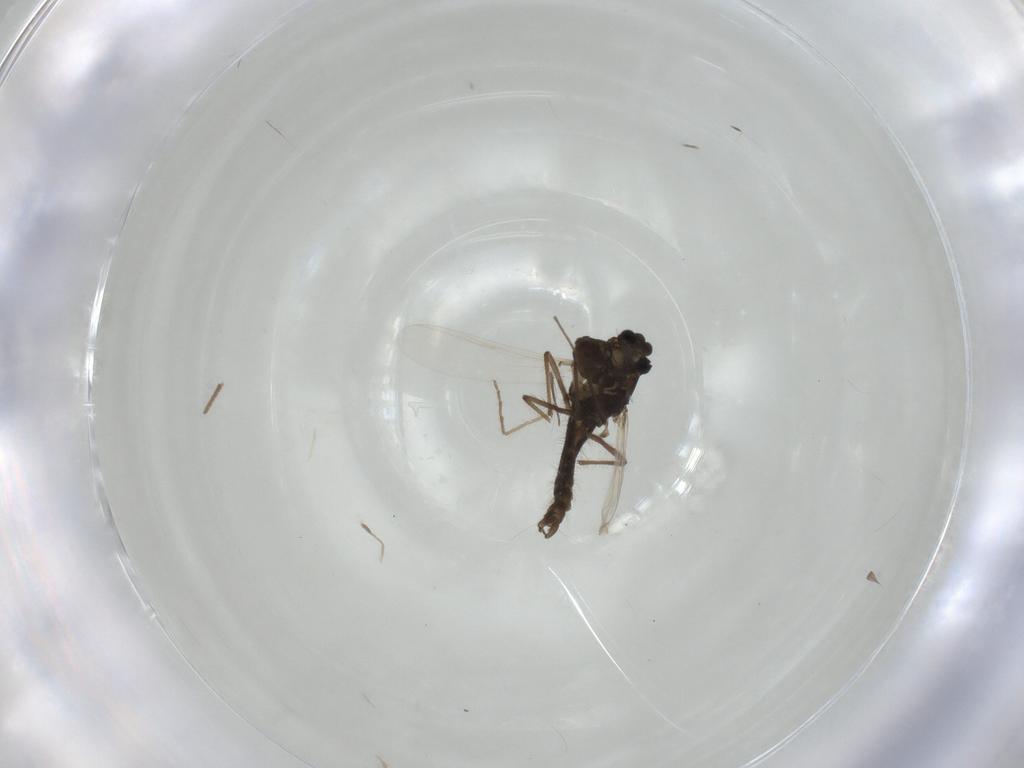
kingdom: Animalia
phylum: Arthropoda
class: Insecta
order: Diptera
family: Chironomidae
